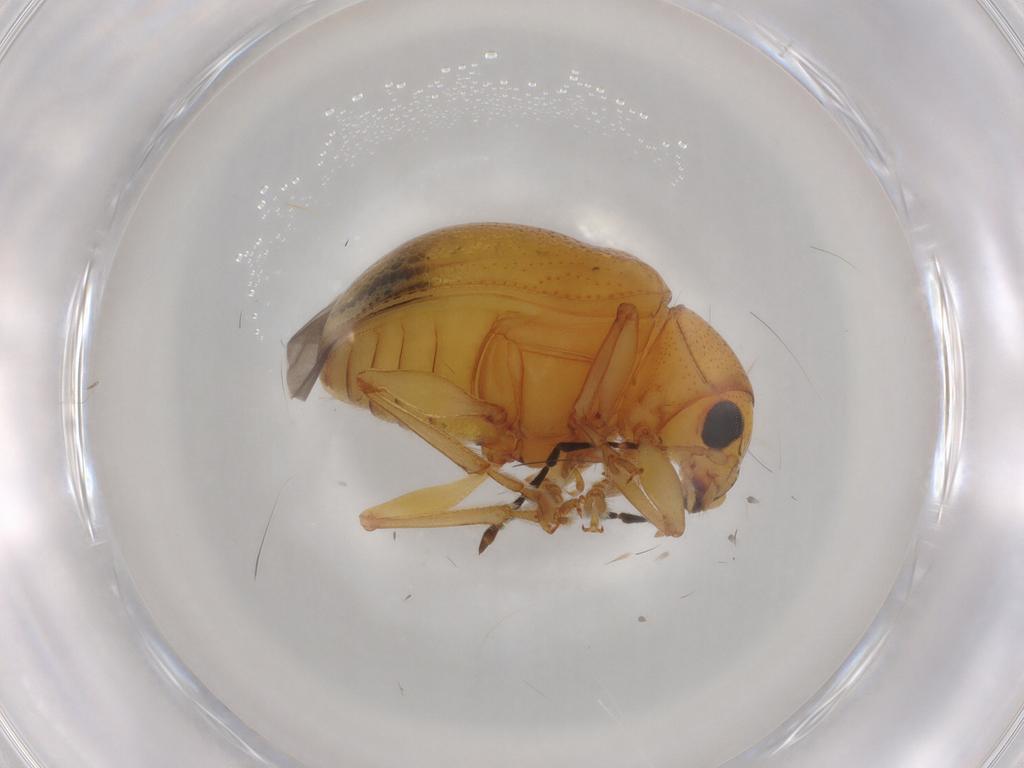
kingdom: Animalia
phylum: Arthropoda
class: Insecta
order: Coleoptera
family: Chrysomelidae
